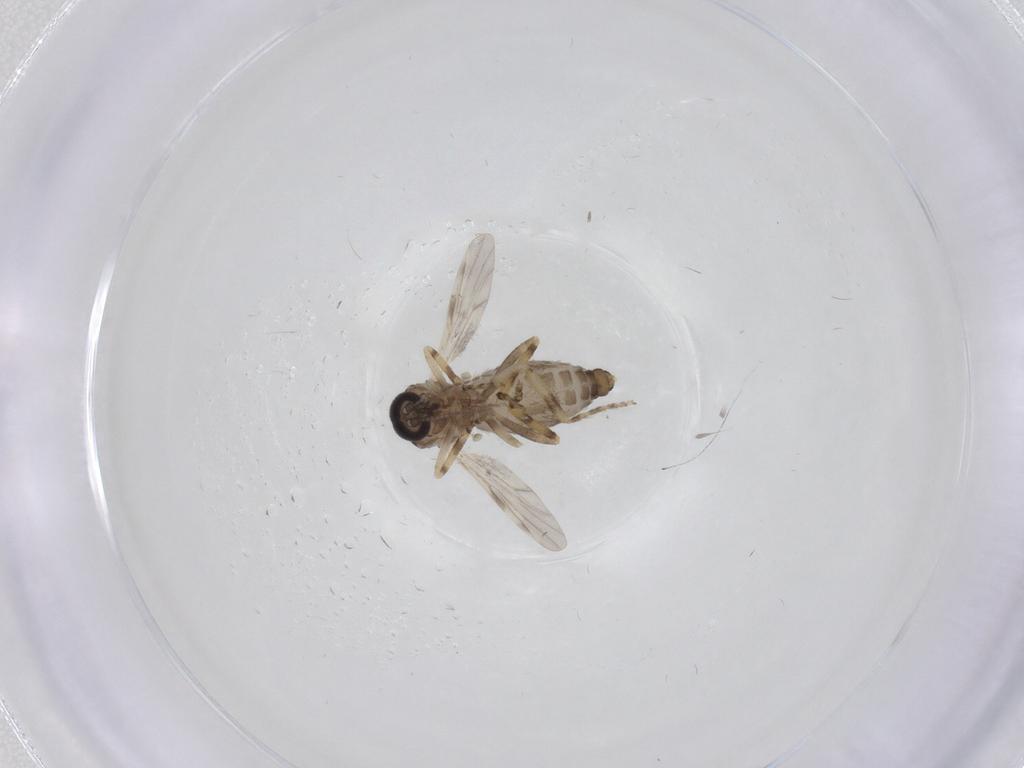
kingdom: Animalia
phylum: Arthropoda
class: Insecta
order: Diptera
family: Ceratopogonidae
